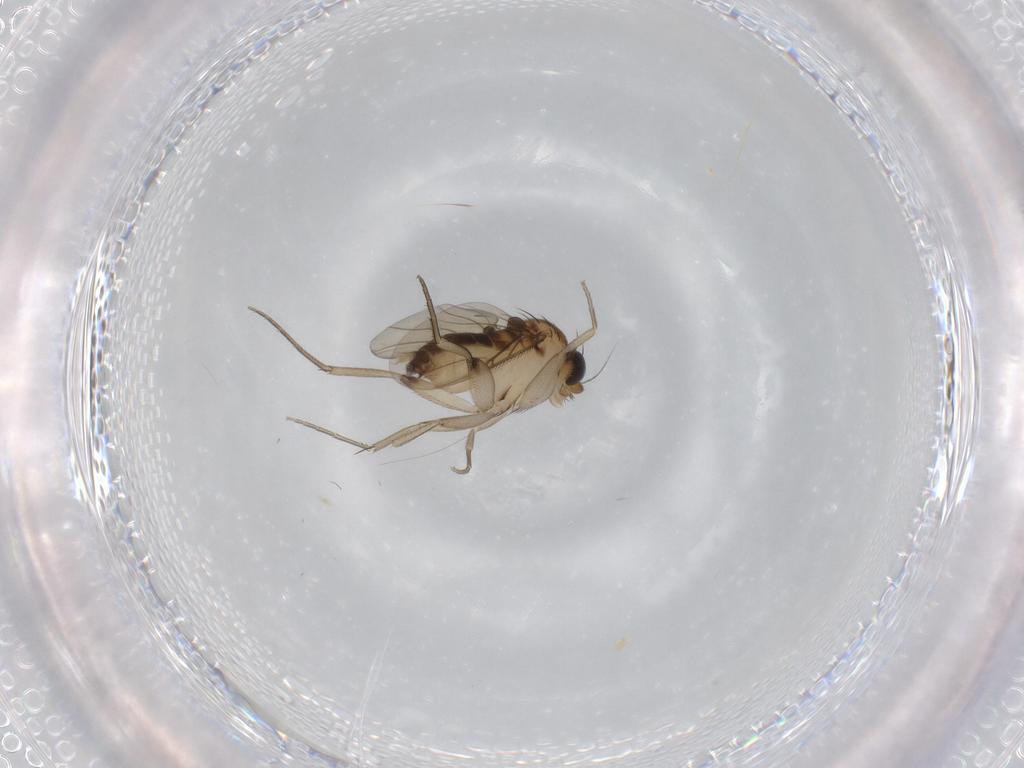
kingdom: Animalia
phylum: Arthropoda
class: Insecta
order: Diptera
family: Phoridae
